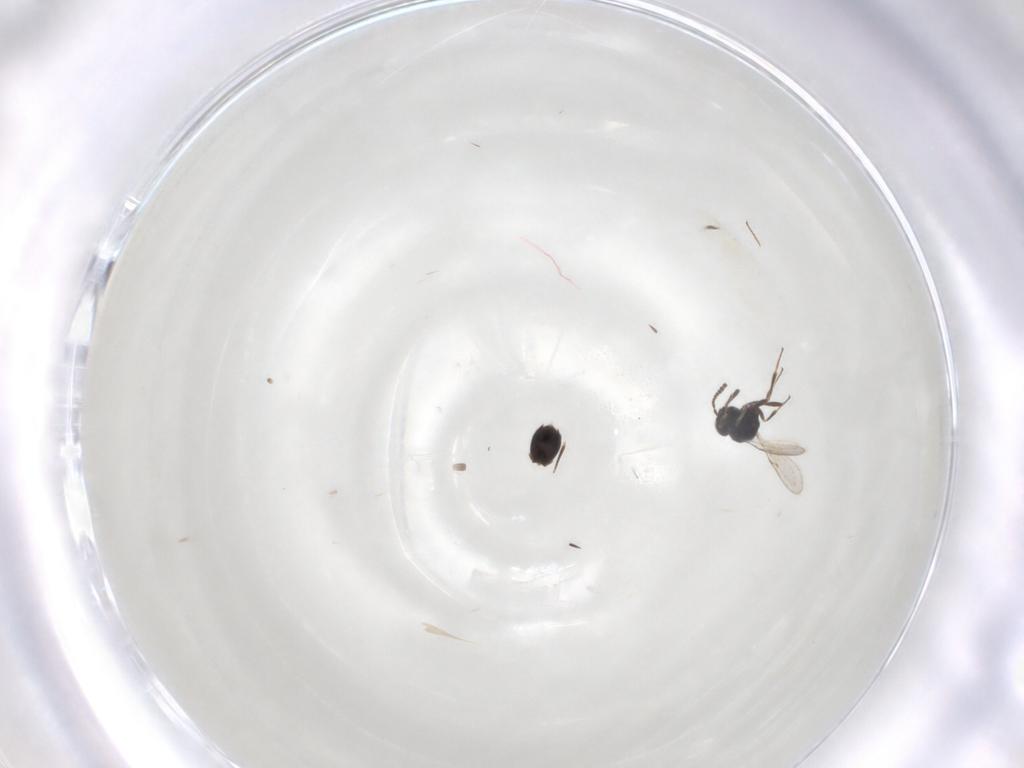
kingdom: Animalia
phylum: Arthropoda
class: Insecta
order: Hymenoptera
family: Scelionidae
